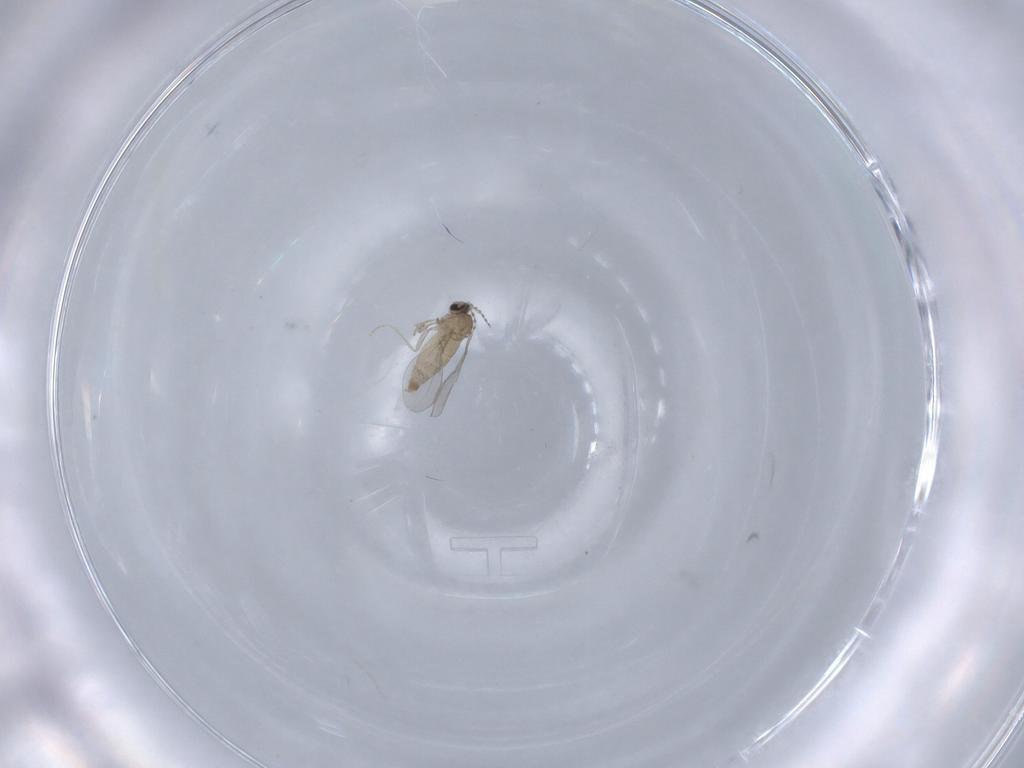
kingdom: Animalia
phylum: Arthropoda
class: Insecta
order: Diptera
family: Cecidomyiidae
